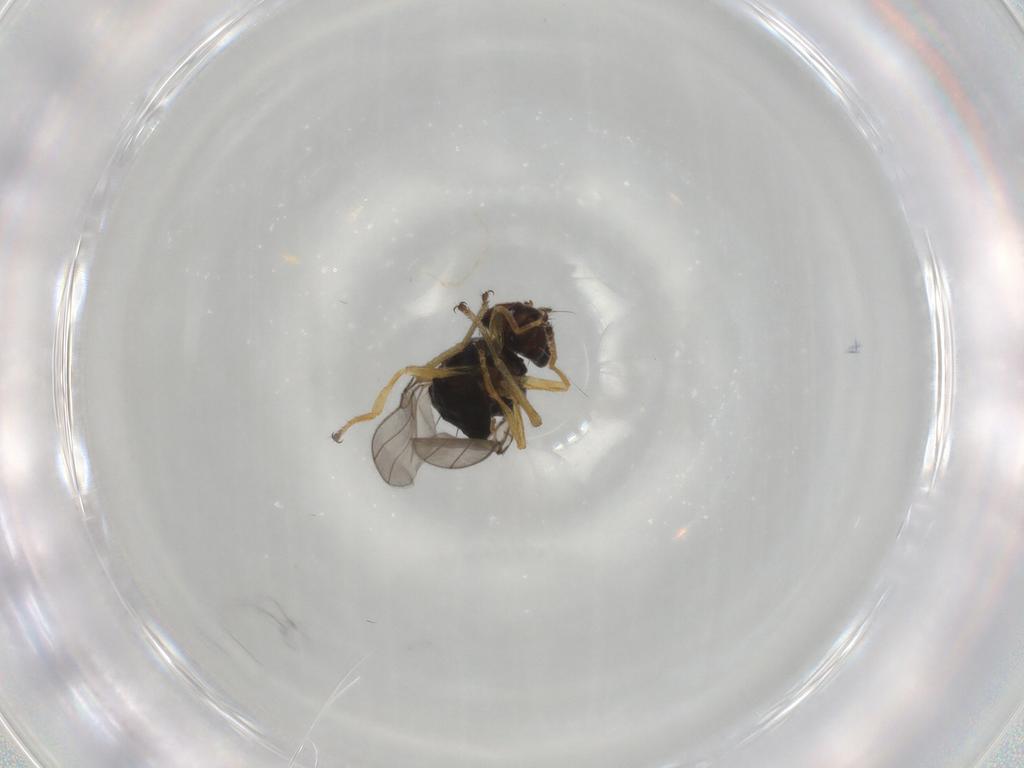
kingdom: Animalia
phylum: Arthropoda
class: Insecta
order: Diptera
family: Ephydridae
